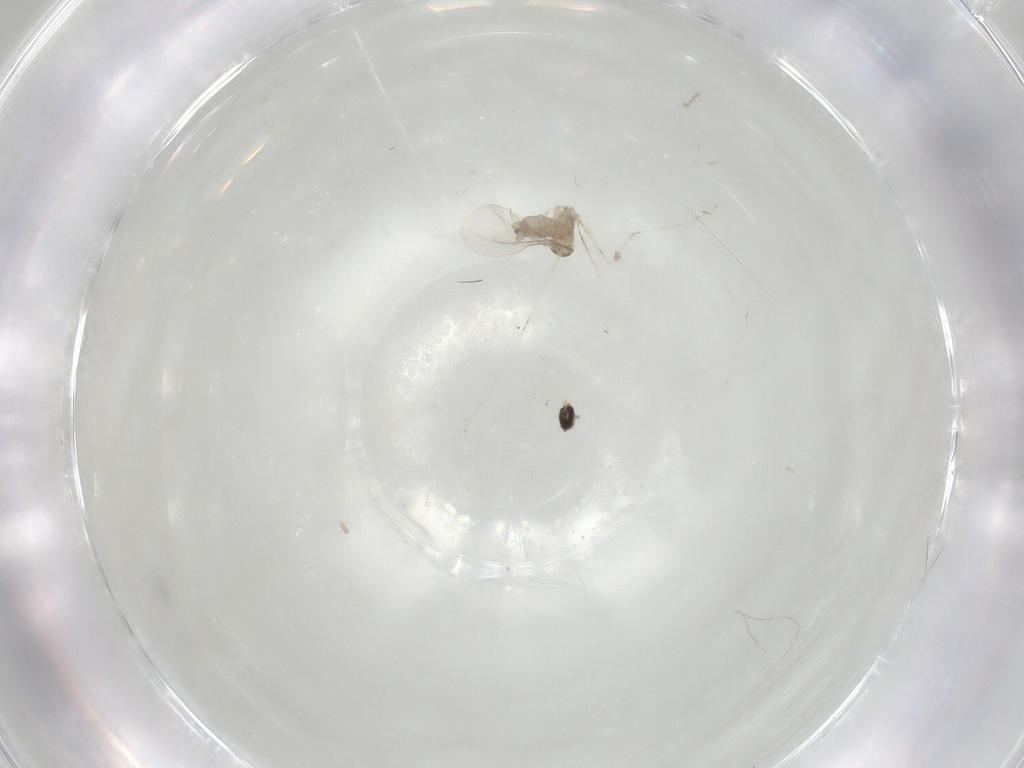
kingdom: Animalia
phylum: Arthropoda
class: Insecta
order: Diptera
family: Cecidomyiidae
